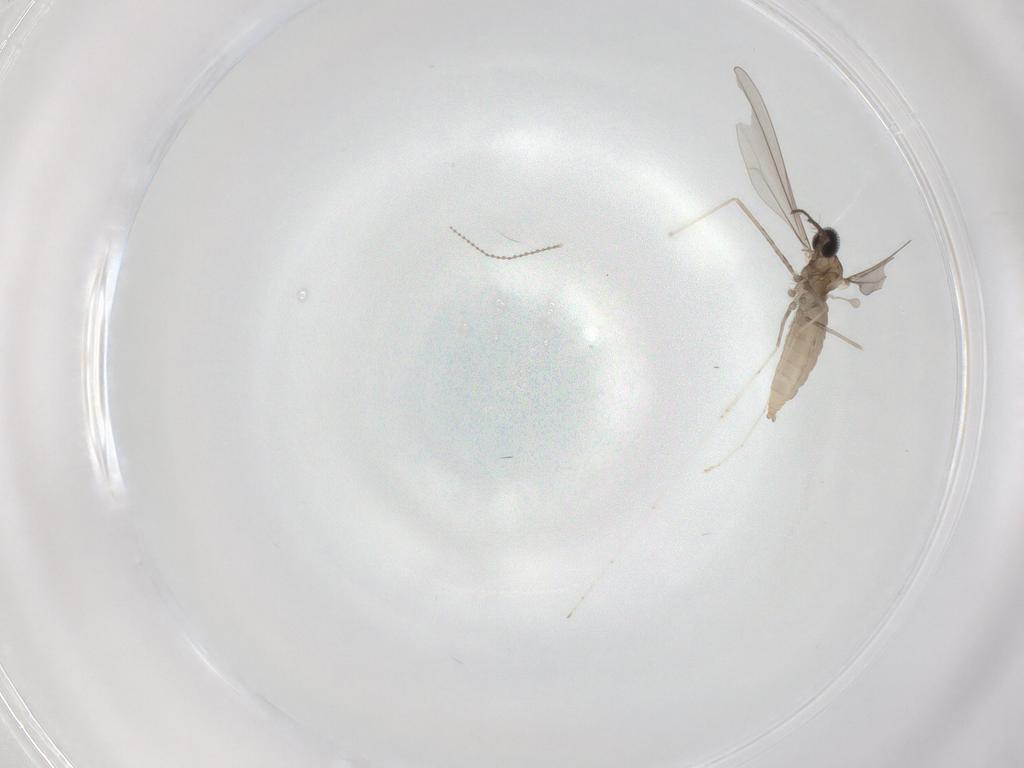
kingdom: Animalia
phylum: Arthropoda
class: Insecta
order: Diptera
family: Cecidomyiidae
